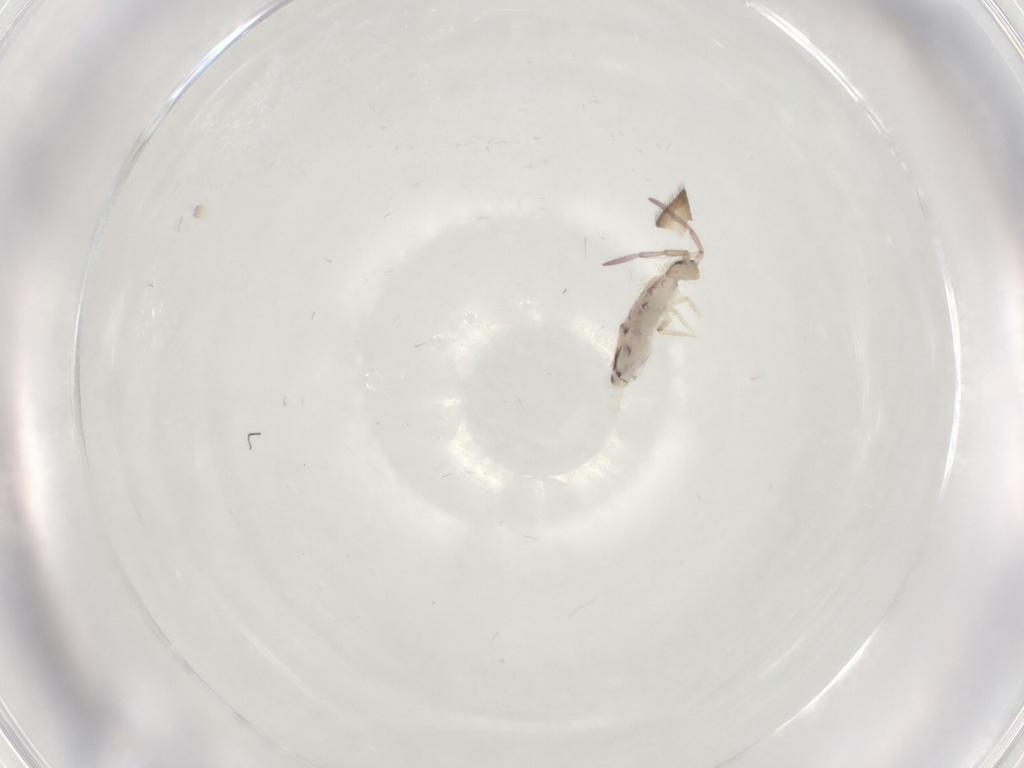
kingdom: Animalia
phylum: Arthropoda
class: Collembola
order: Entomobryomorpha
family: Entomobryidae
